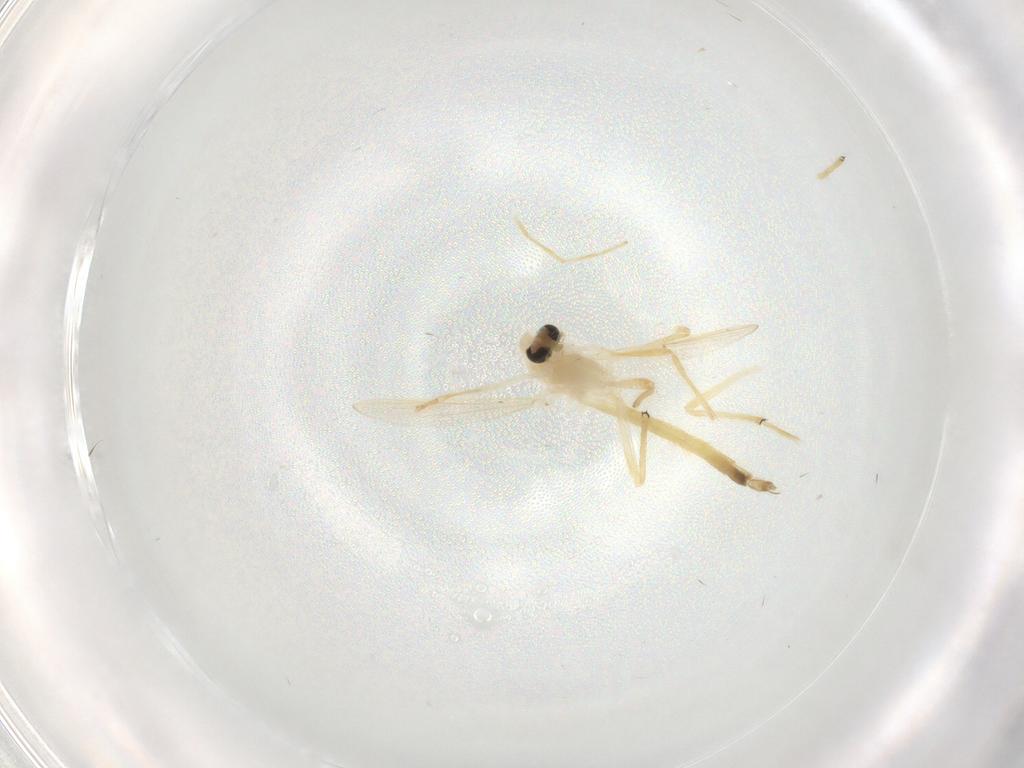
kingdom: Animalia
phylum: Arthropoda
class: Insecta
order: Diptera
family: Chironomidae
